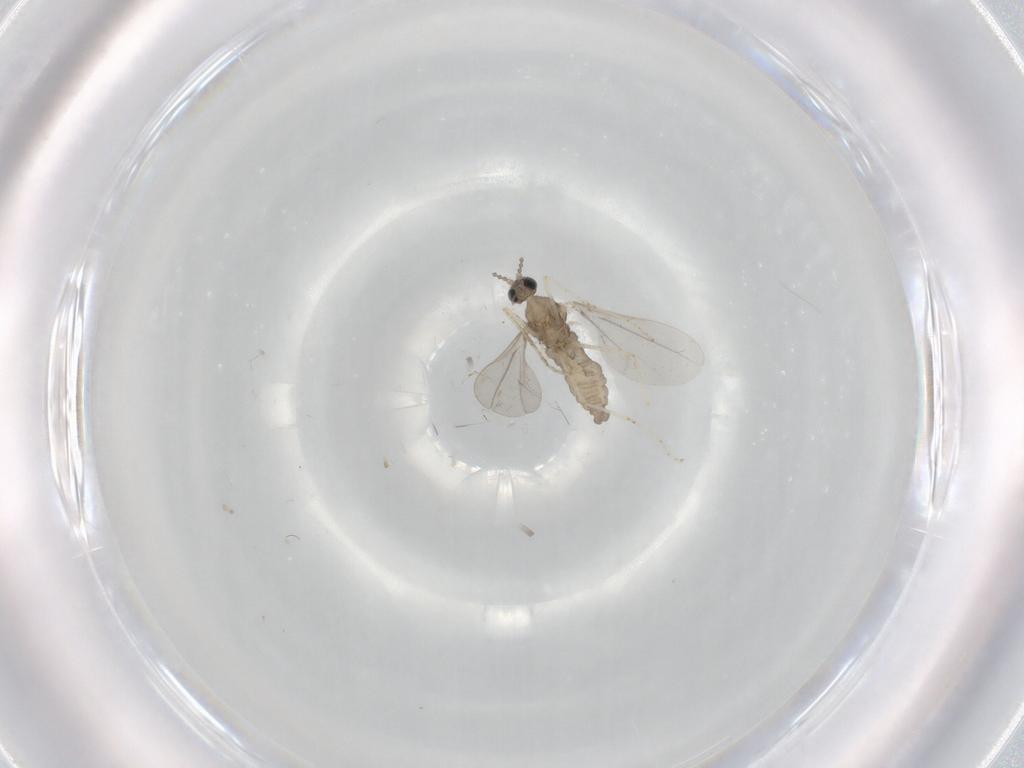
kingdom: Animalia
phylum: Arthropoda
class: Insecta
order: Diptera
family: Cecidomyiidae
